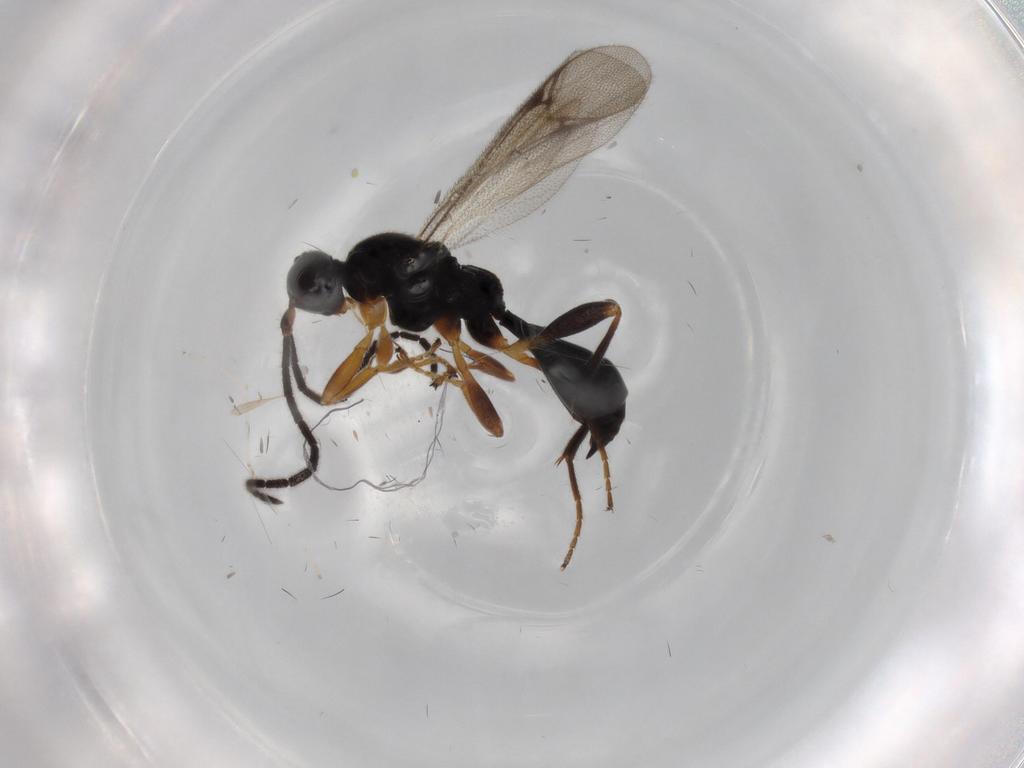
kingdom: Animalia
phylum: Arthropoda
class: Insecta
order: Hymenoptera
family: Proctotrupidae
